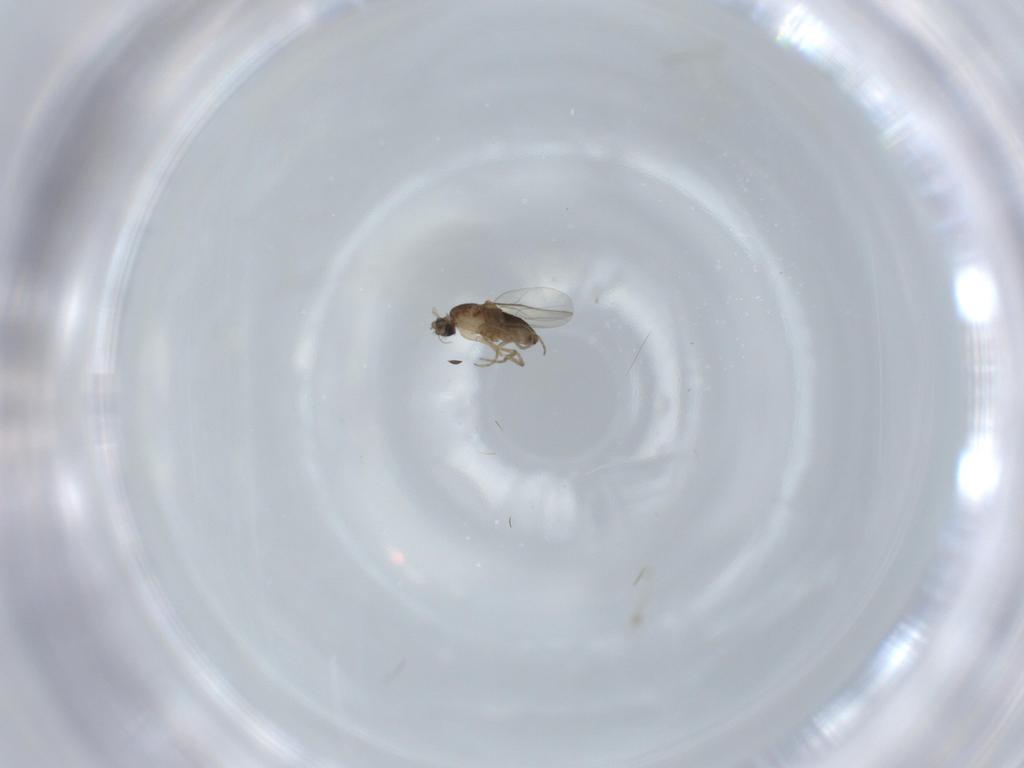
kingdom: Animalia
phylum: Arthropoda
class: Insecta
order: Diptera
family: Phoridae
